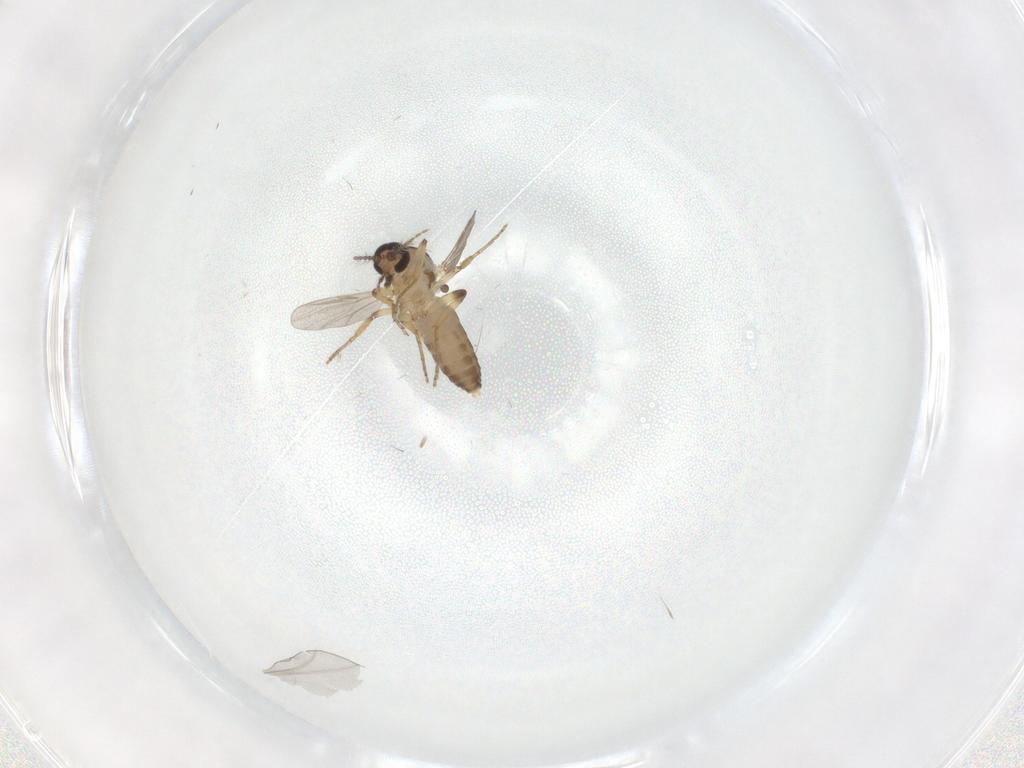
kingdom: Animalia
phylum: Arthropoda
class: Insecta
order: Diptera
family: Ceratopogonidae
